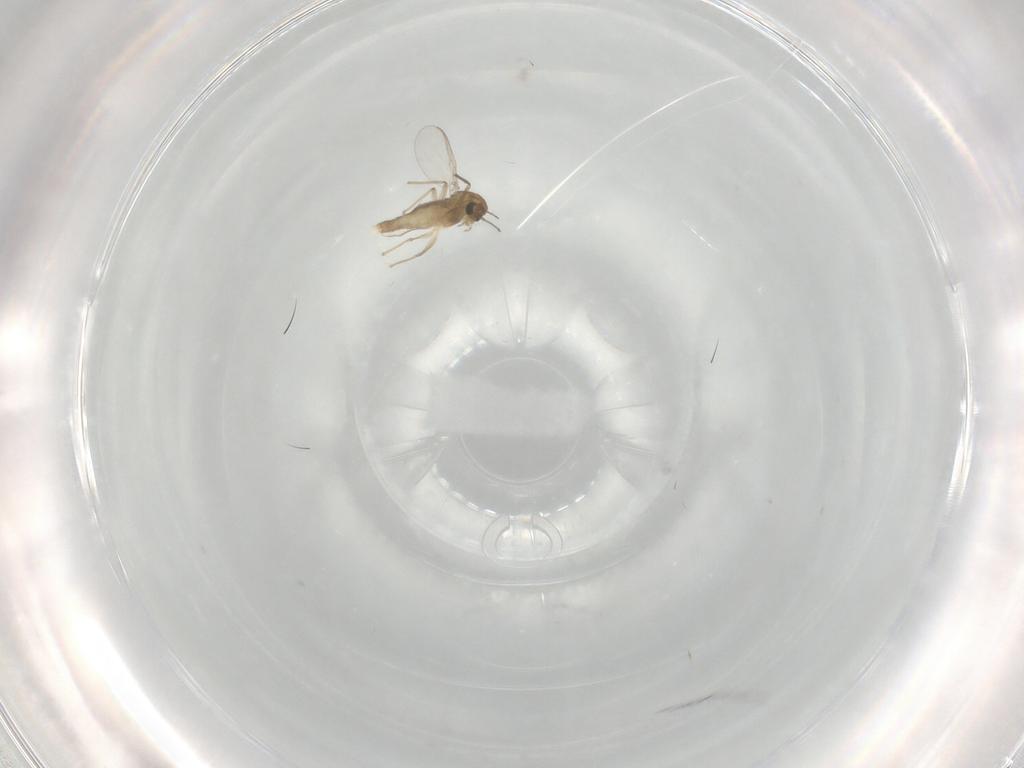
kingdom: Animalia
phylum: Arthropoda
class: Insecta
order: Diptera
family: Chironomidae
